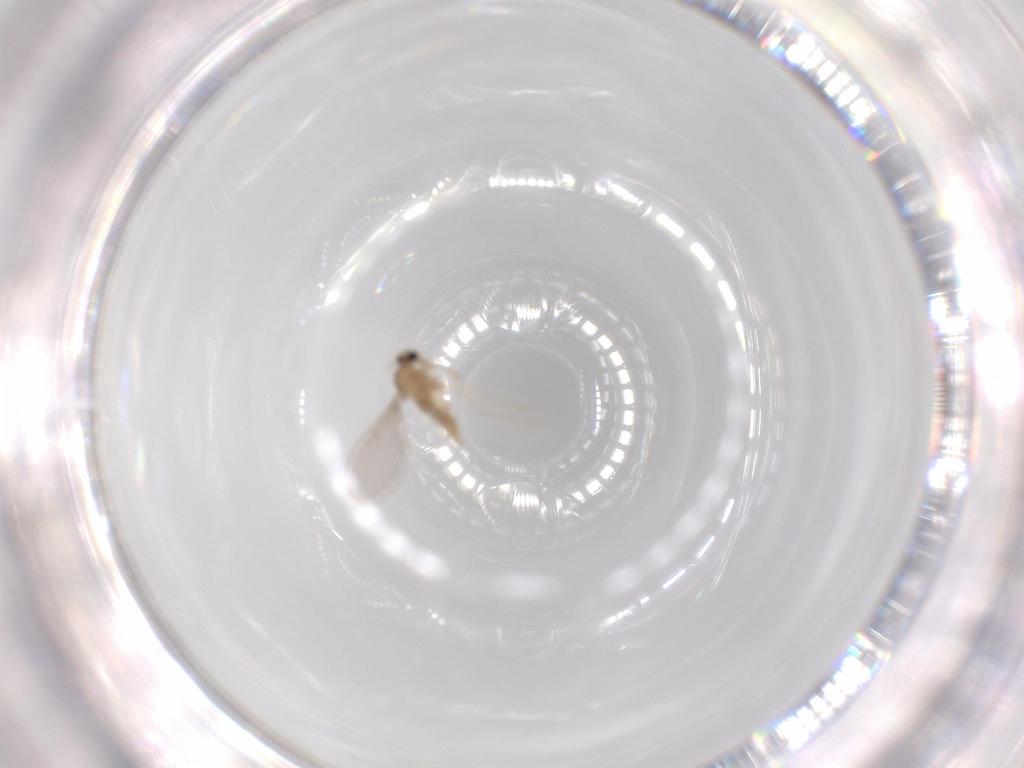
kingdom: Animalia
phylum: Arthropoda
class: Insecta
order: Diptera
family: Cecidomyiidae
